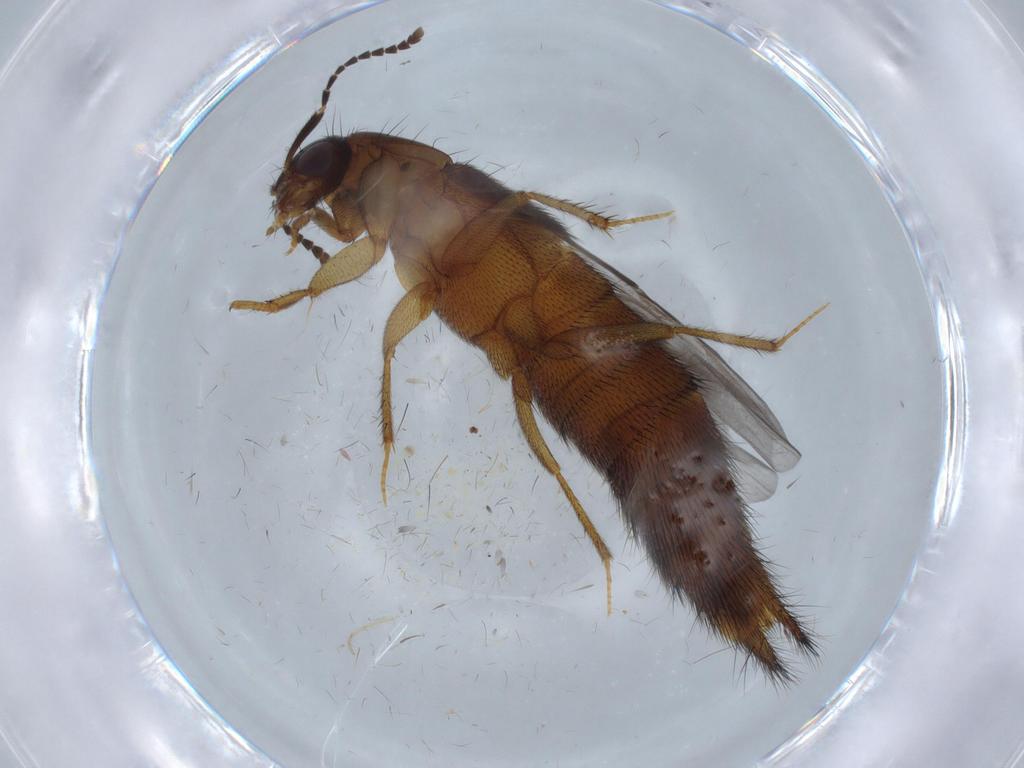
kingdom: Animalia
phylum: Arthropoda
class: Insecta
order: Coleoptera
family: Staphylinidae
